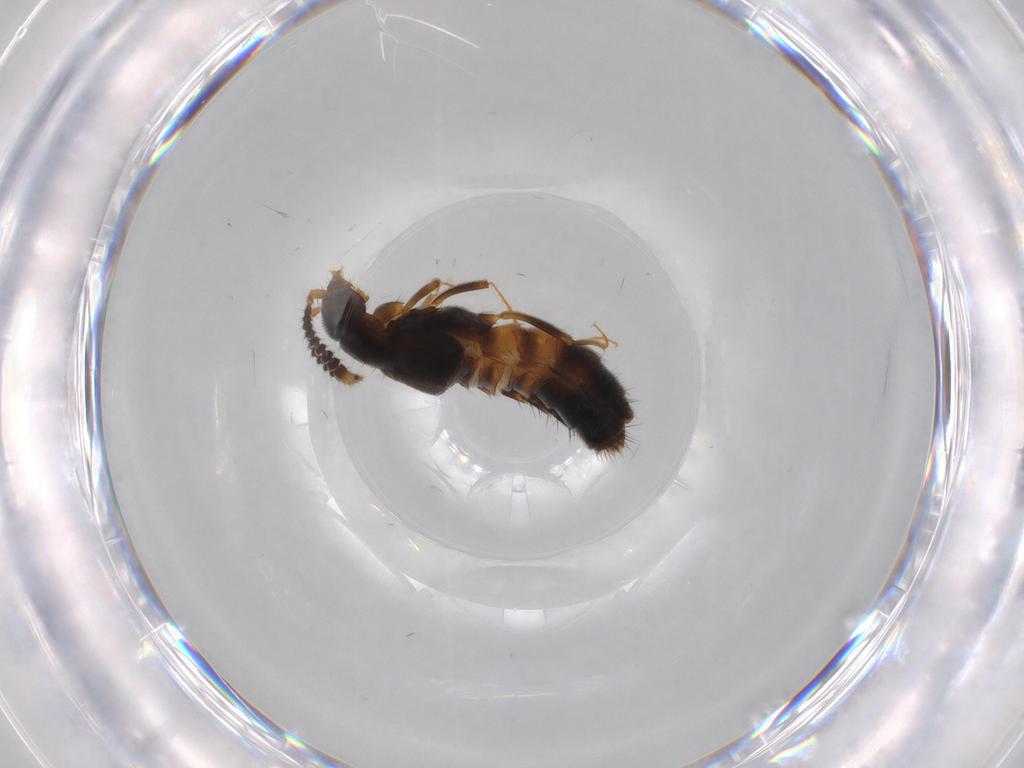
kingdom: Animalia
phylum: Arthropoda
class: Insecta
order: Coleoptera
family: Staphylinidae
